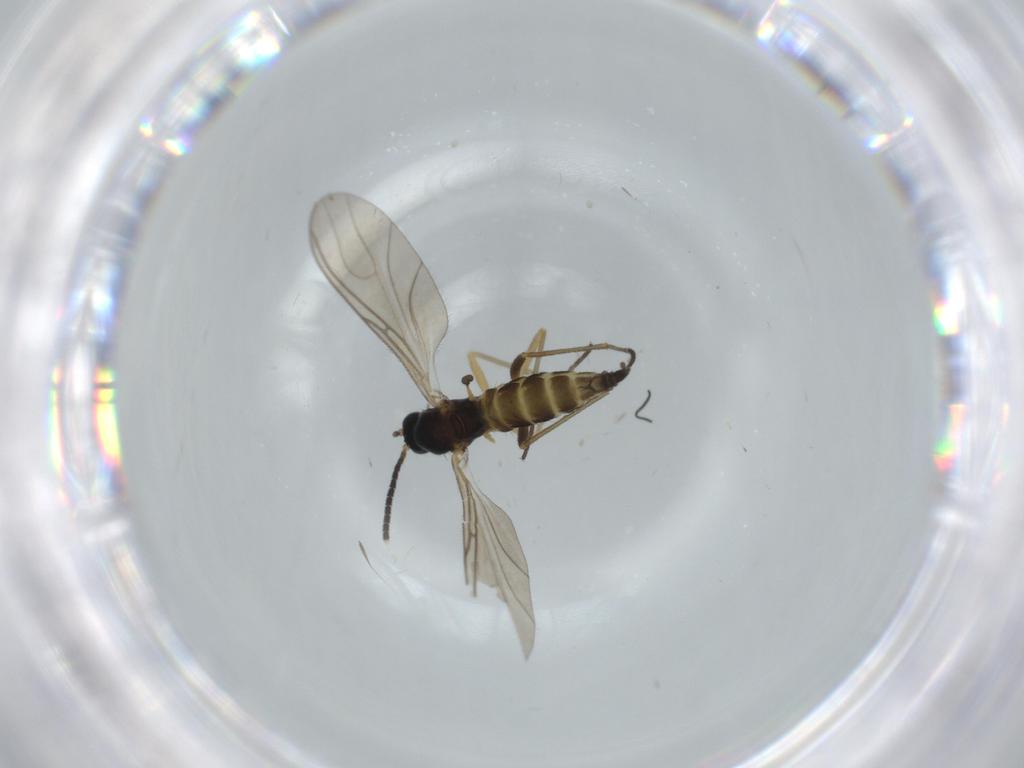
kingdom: Animalia
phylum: Arthropoda
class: Insecta
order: Diptera
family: Sciaridae
